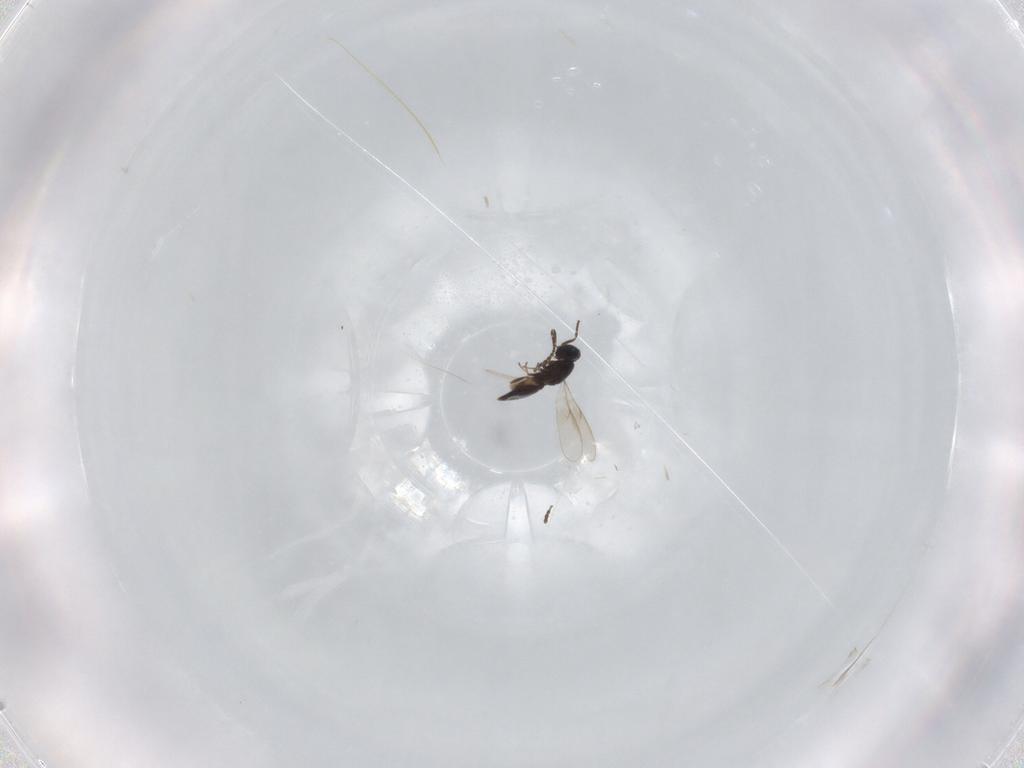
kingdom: Animalia
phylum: Arthropoda
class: Insecta
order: Hymenoptera
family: Scelionidae
